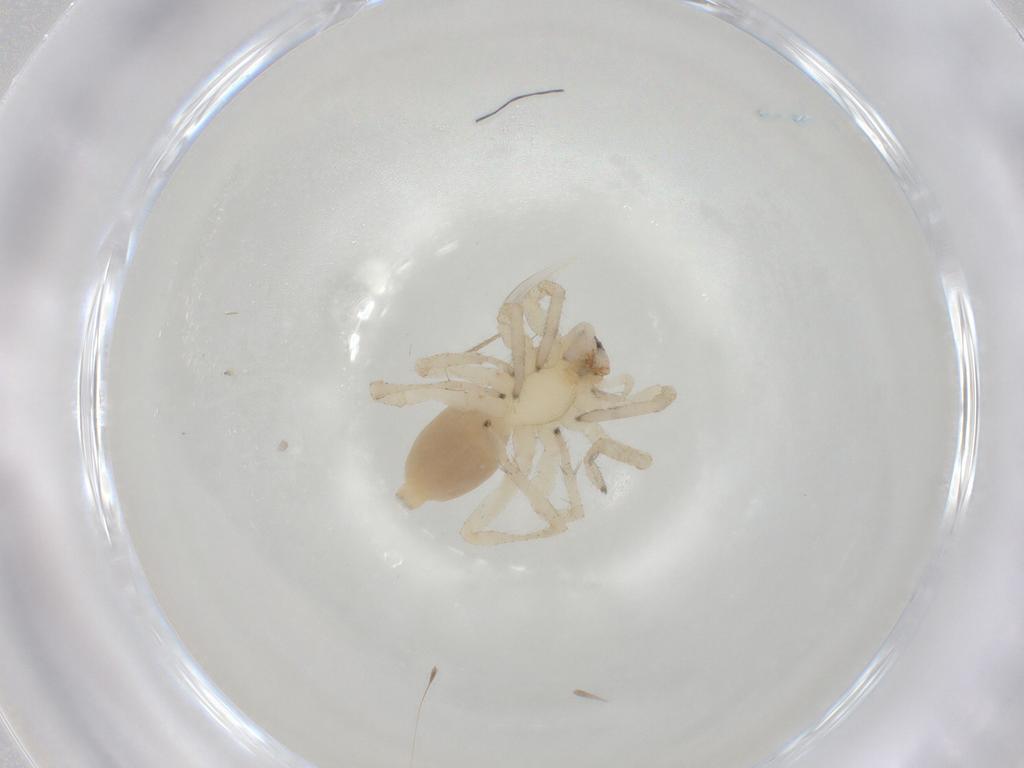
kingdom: Animalia
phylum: Arthropoda
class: Arachnida
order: Araneae
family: Clubionidae
